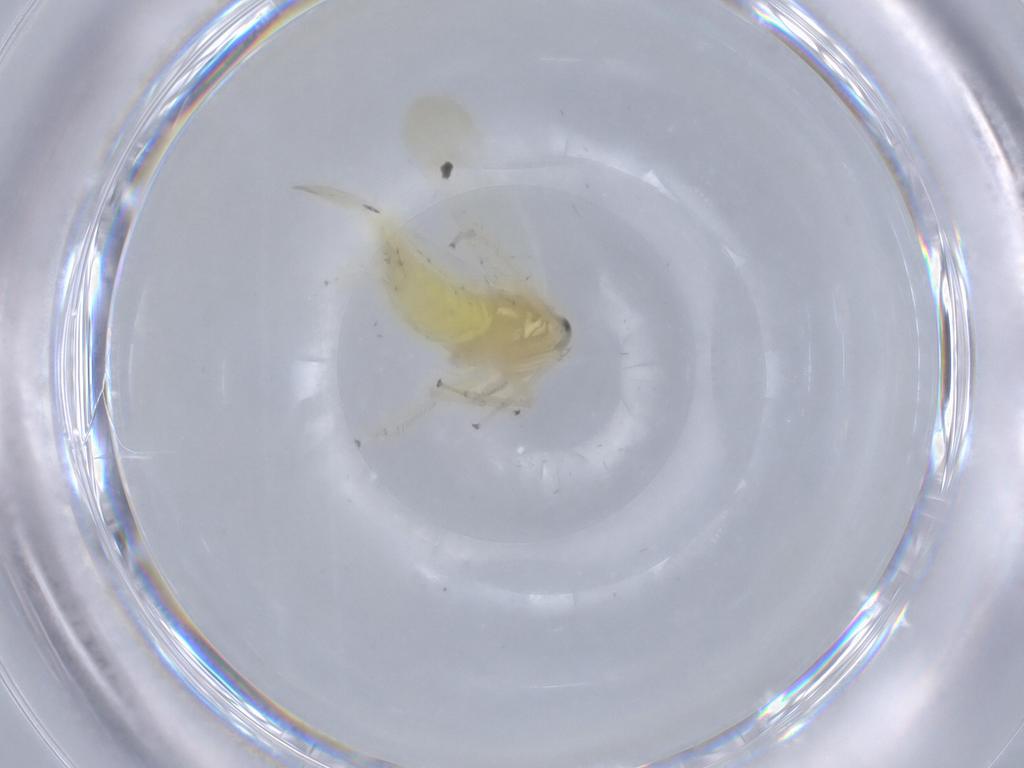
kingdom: Animalia
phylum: Arthropoda
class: Insecta
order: Hemiptera
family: Cicadellidae
